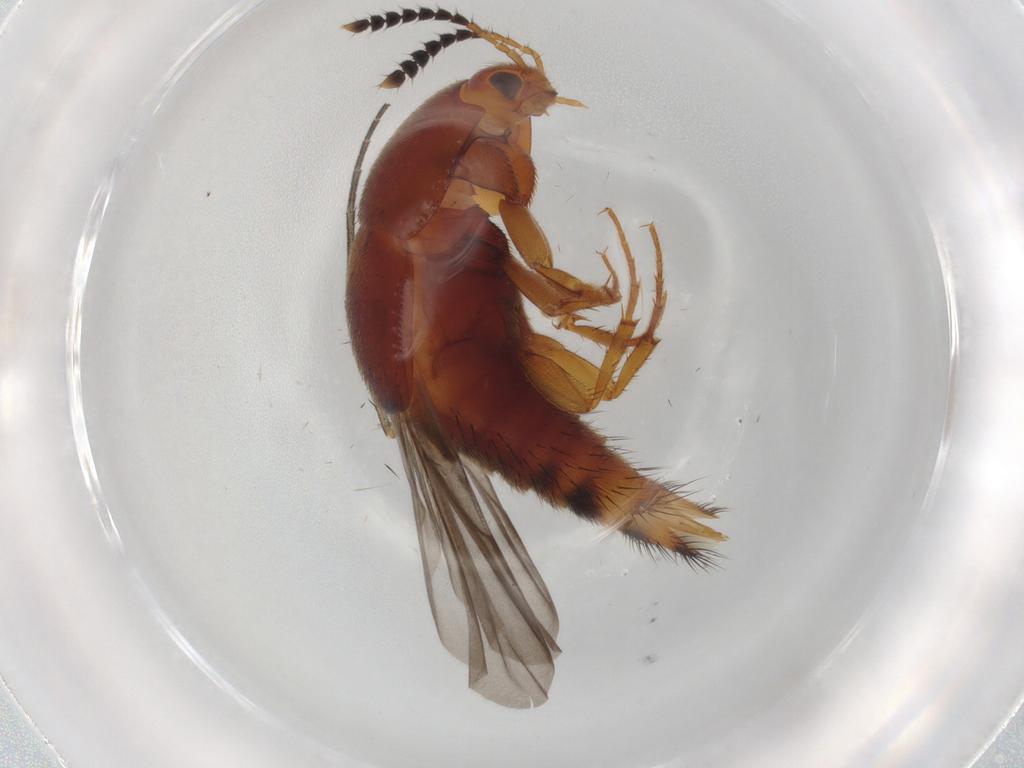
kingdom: Animalia
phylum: Arthropoda
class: Insecta
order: Coleoptera
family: Staphylinidae
